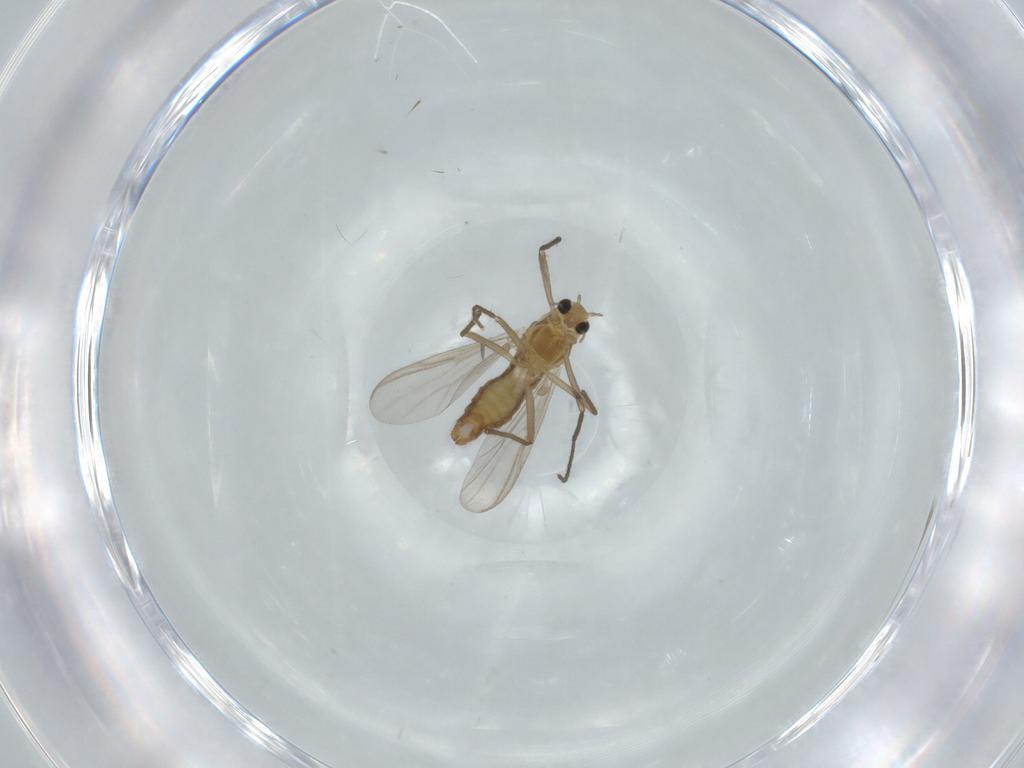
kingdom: Animalia
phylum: Arthropoda
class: Insecta
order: Diptera
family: Chironomidae
